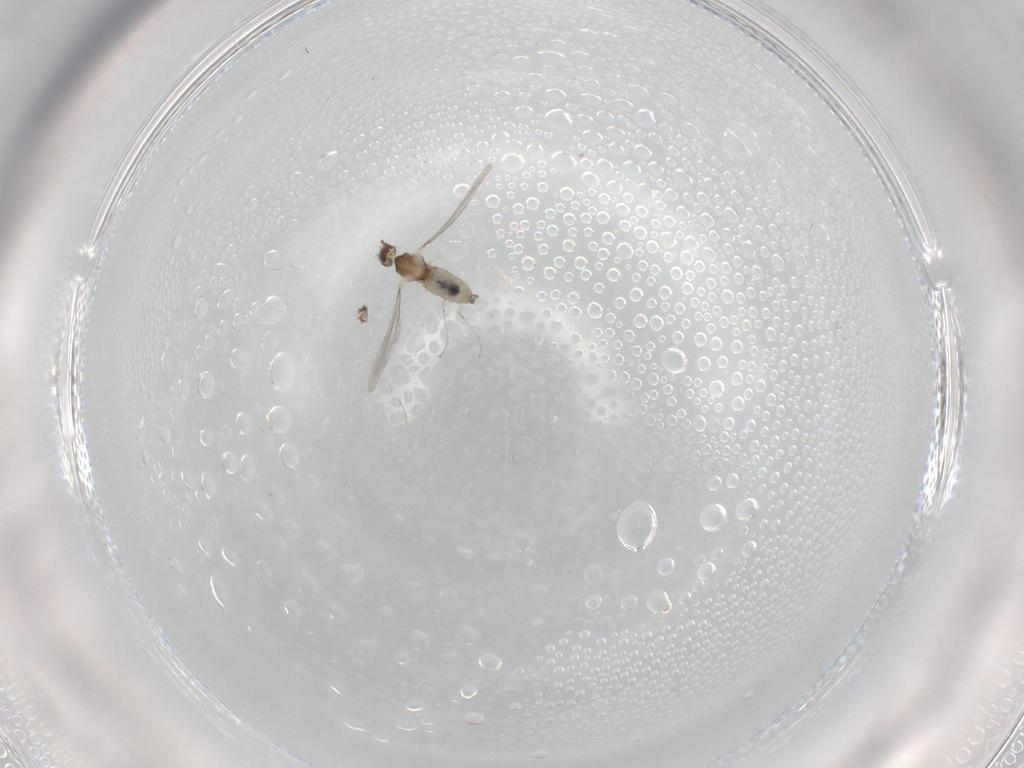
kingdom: Animalia
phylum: Arthropoda
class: Insecta
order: Diptera
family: Cecidomyiidae
